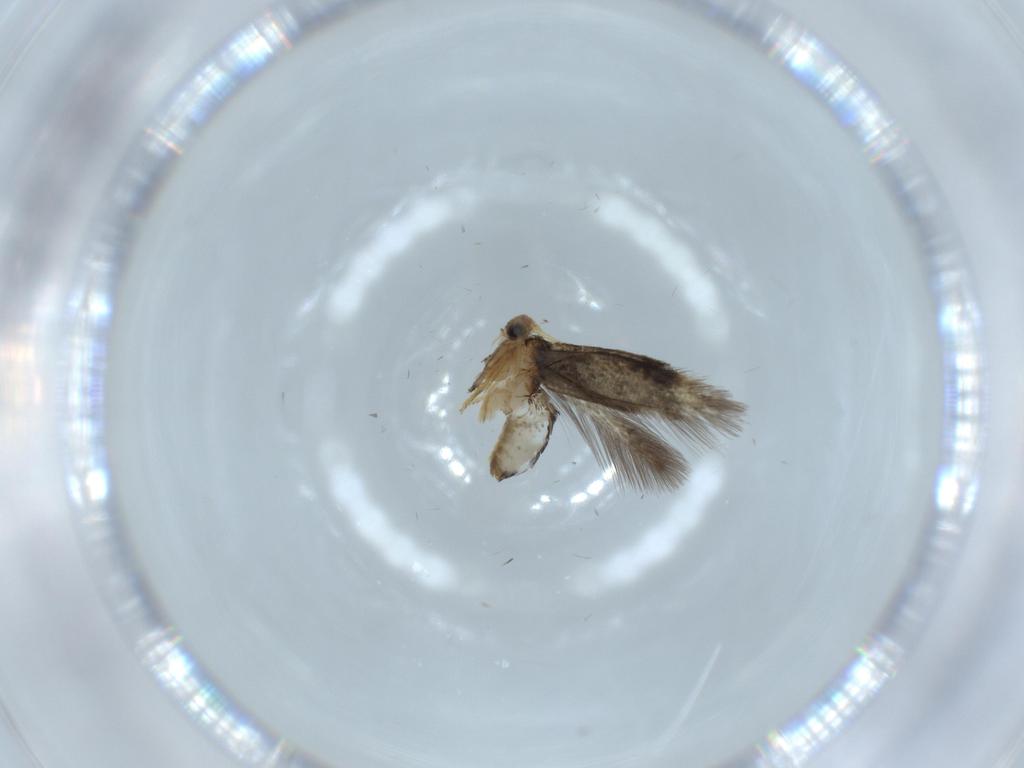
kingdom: Animalia
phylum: Arthropoda
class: Insecta
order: Lepidoptera
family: Nepticulidae
